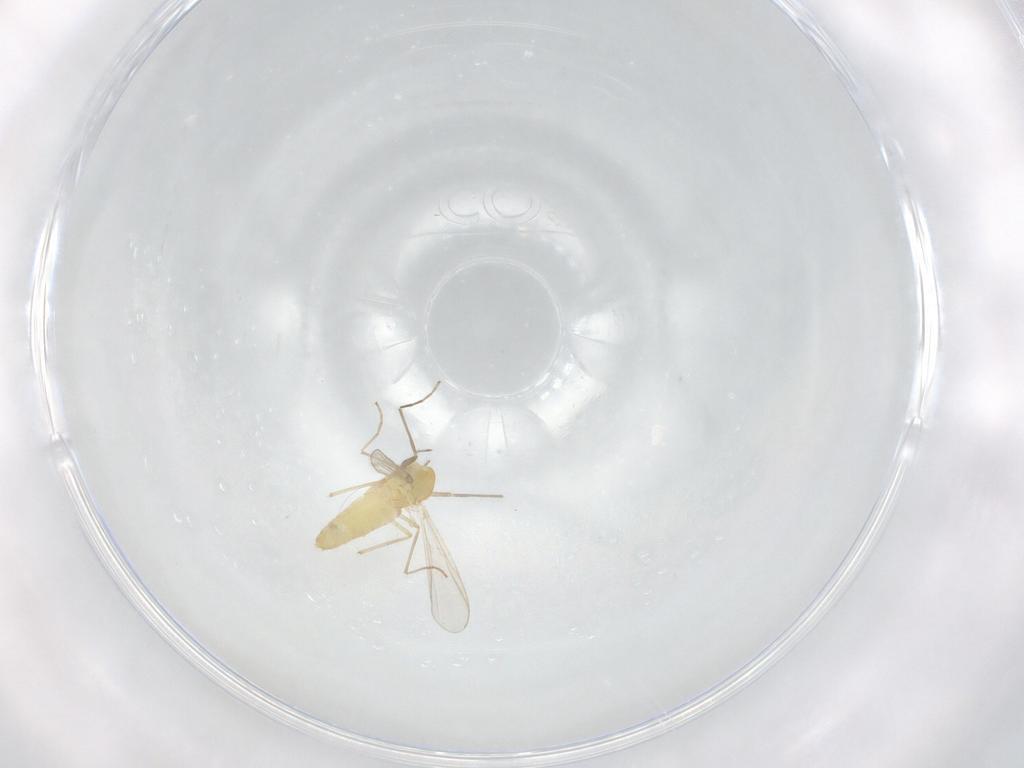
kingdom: Animalia
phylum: Arthropoda
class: Insecta
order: Diptera
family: Chironomidae
